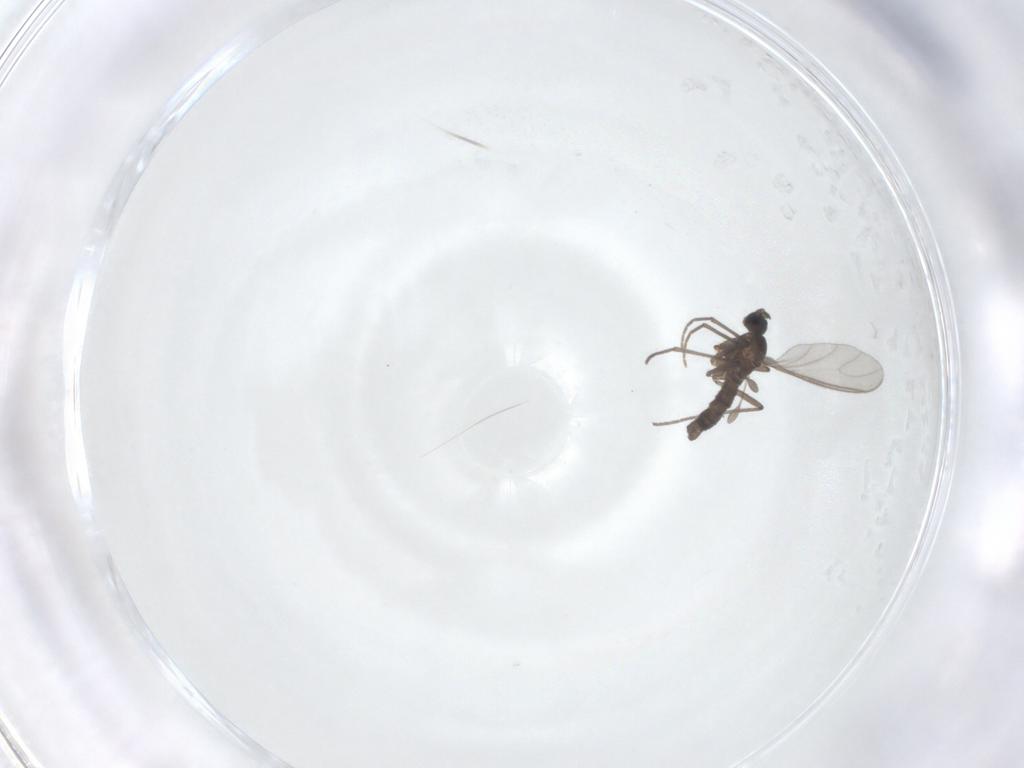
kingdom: Animalia
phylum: Arthropoda
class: Insecta
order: Diptera
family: Sciaridae
